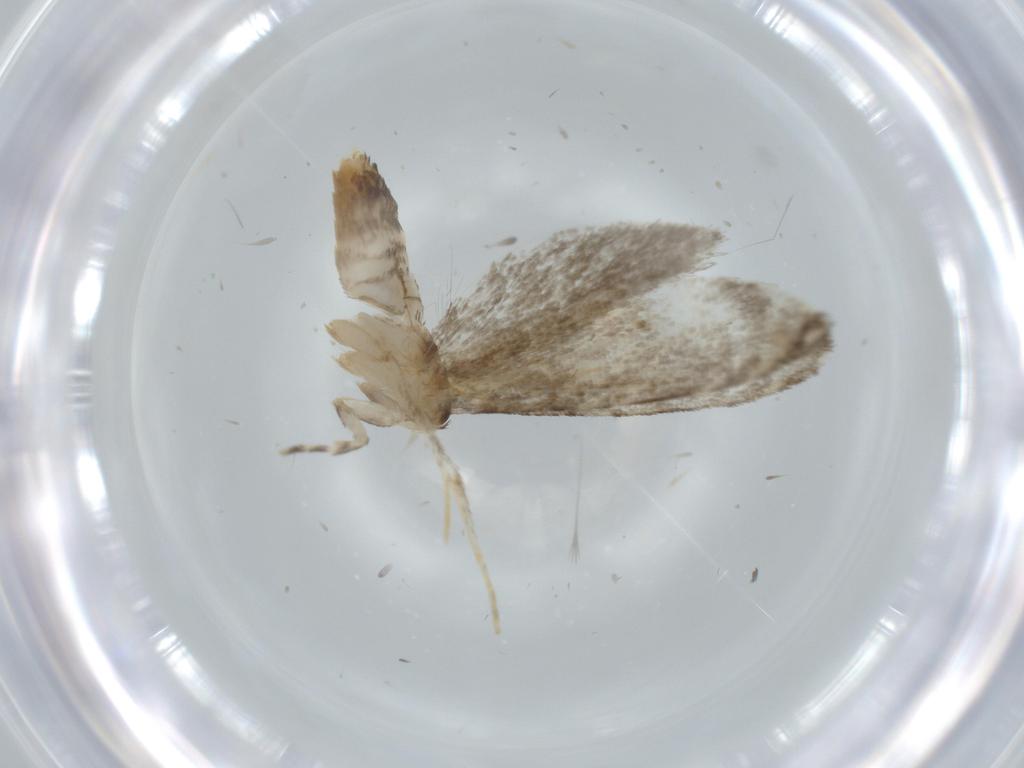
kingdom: Animalia
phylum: Arthropoda
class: Insecta
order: Lepidoptera
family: Tineidae
